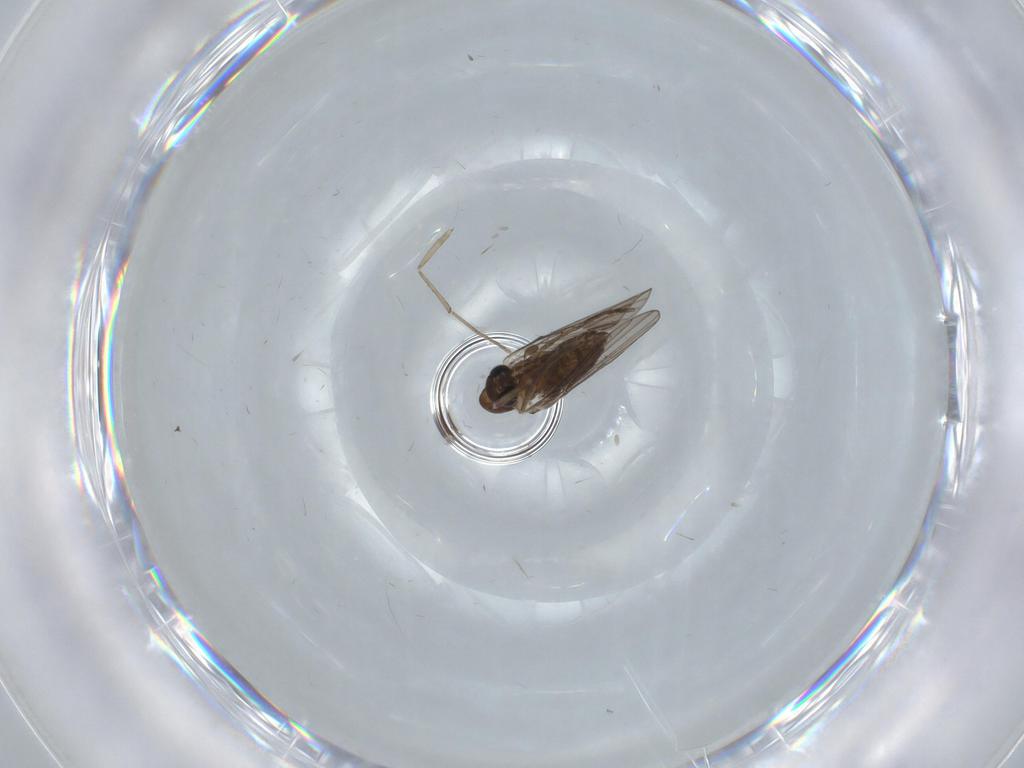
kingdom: Animalia
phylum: Arthropoda
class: Insecta
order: Diptera
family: Psychodidae
